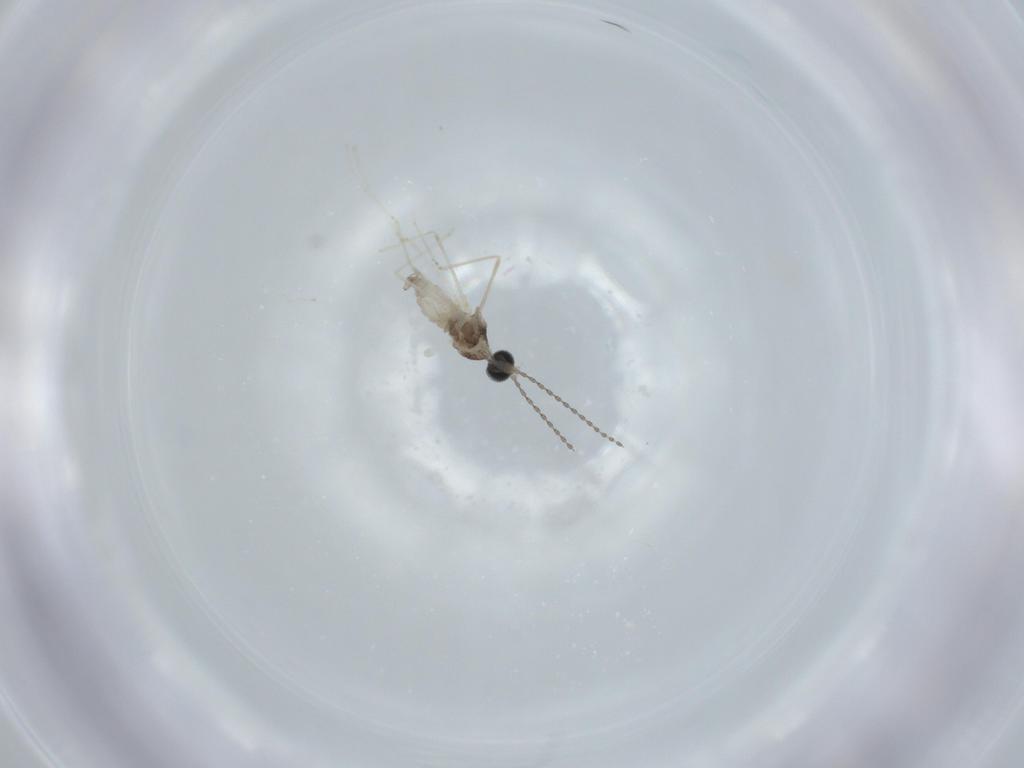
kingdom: Animalia
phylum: Arthropoda
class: Insecta
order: Diptera
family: Cecidomyiidae
